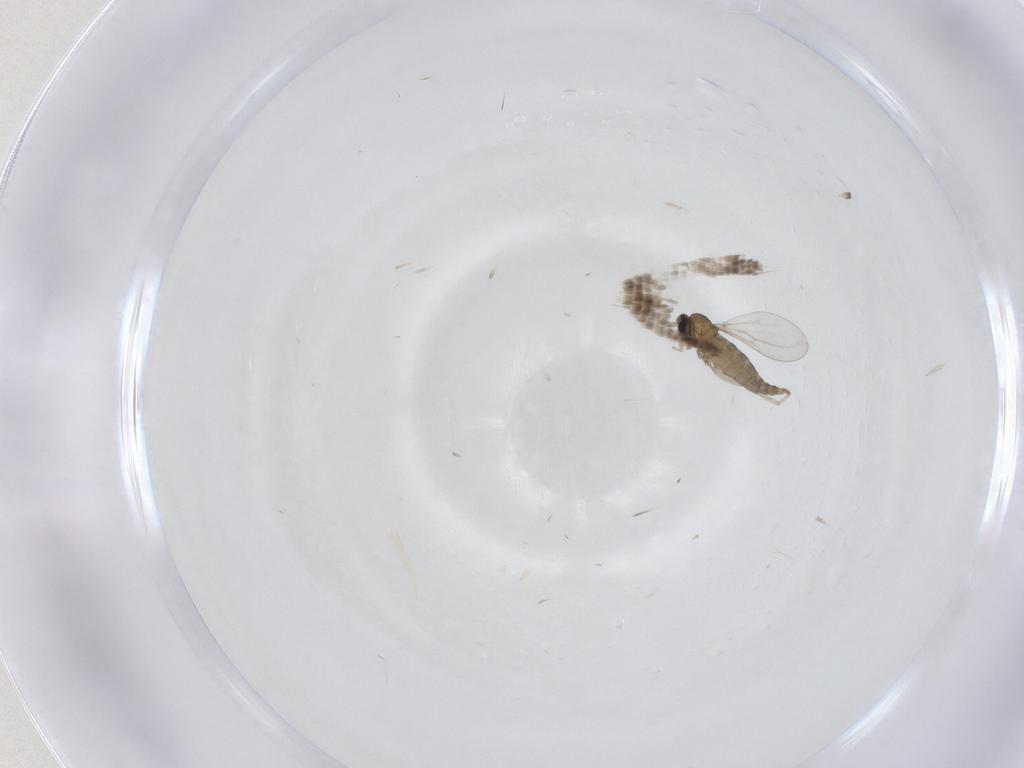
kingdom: Animalia
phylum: Arthropoda
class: Insecta
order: Diptera
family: Cecidomyiidae
